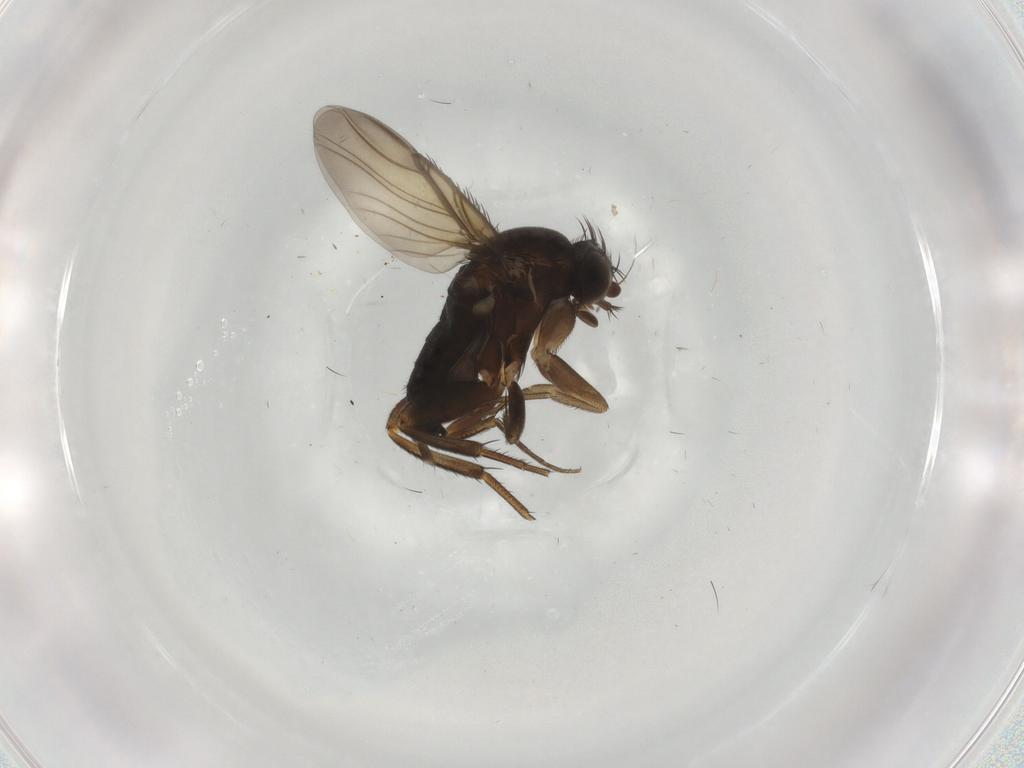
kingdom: Animalia
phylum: Arthropoda
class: Insecta
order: Diptera
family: Phoridae
